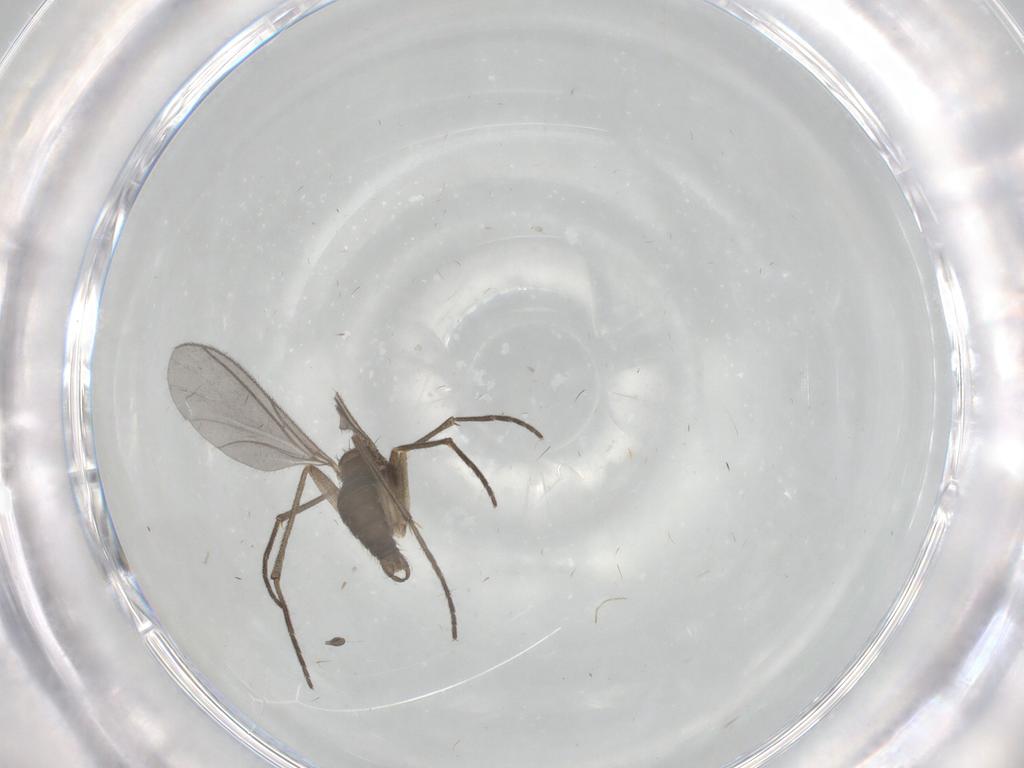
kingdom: Animalia
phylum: Arthropoda
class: Insecta
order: Diptera
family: Sciaridae
